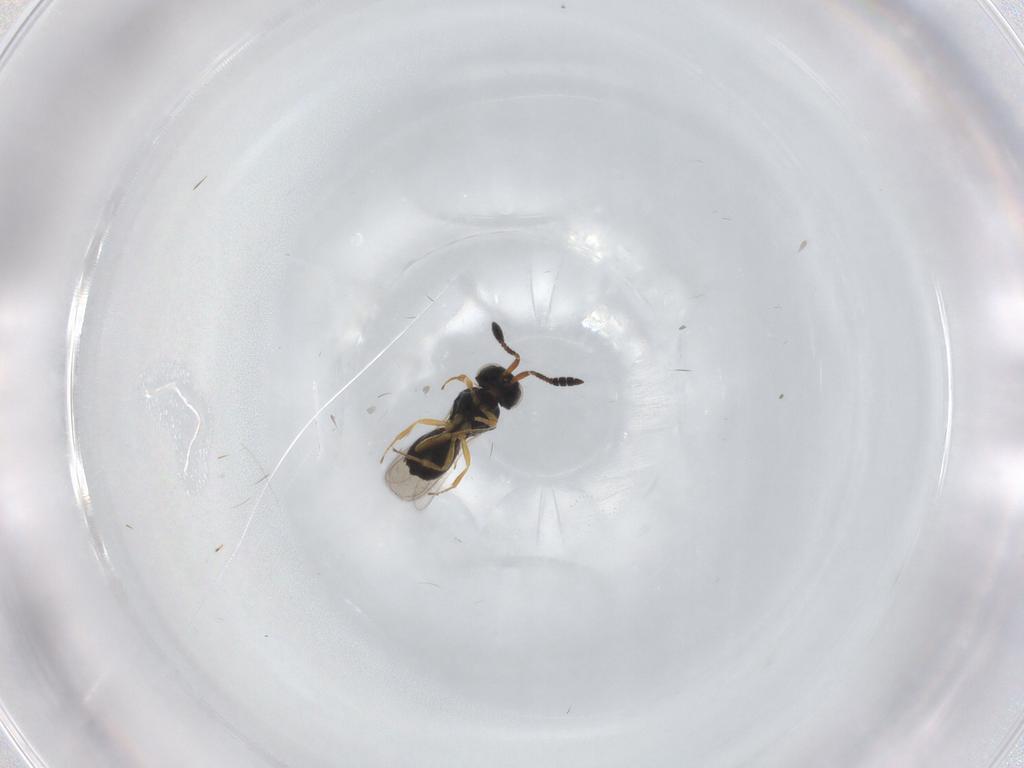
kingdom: Animalia
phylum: Arthropoda
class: Insecta
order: Hymenoptera
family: Scelionidae
